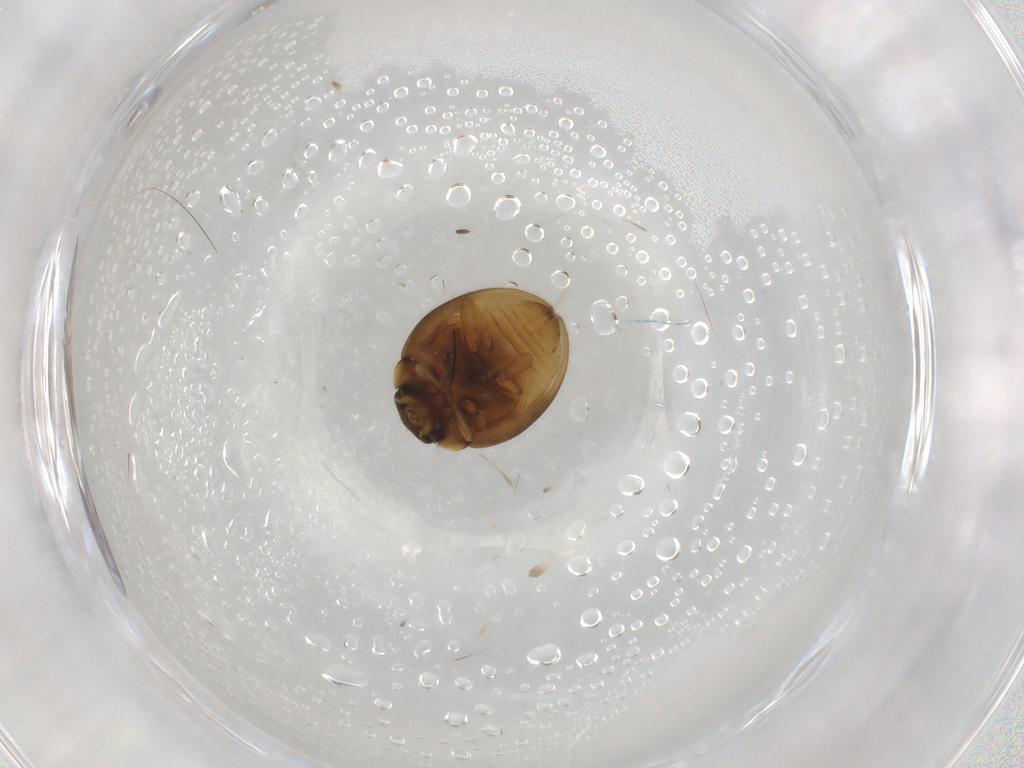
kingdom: Animalia
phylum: Arthropoda
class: Insecta
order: Coleoptera
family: Coccinellidae
